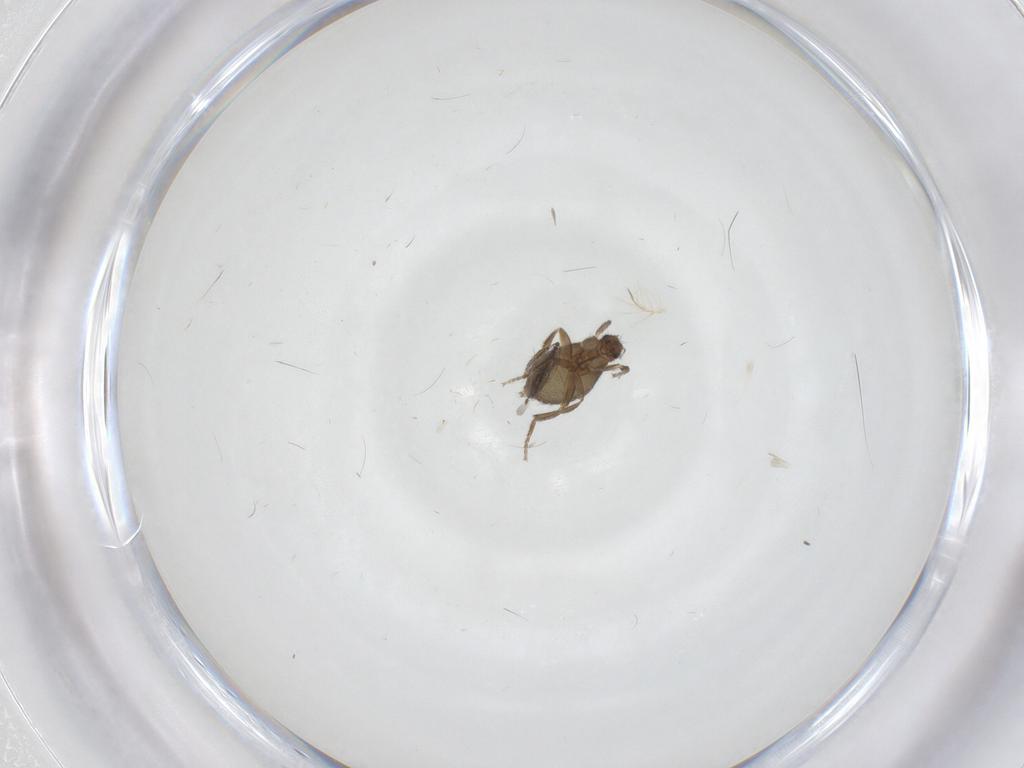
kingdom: Animalia
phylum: Arthropoda
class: Insecta
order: Diptera
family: Phoridae
